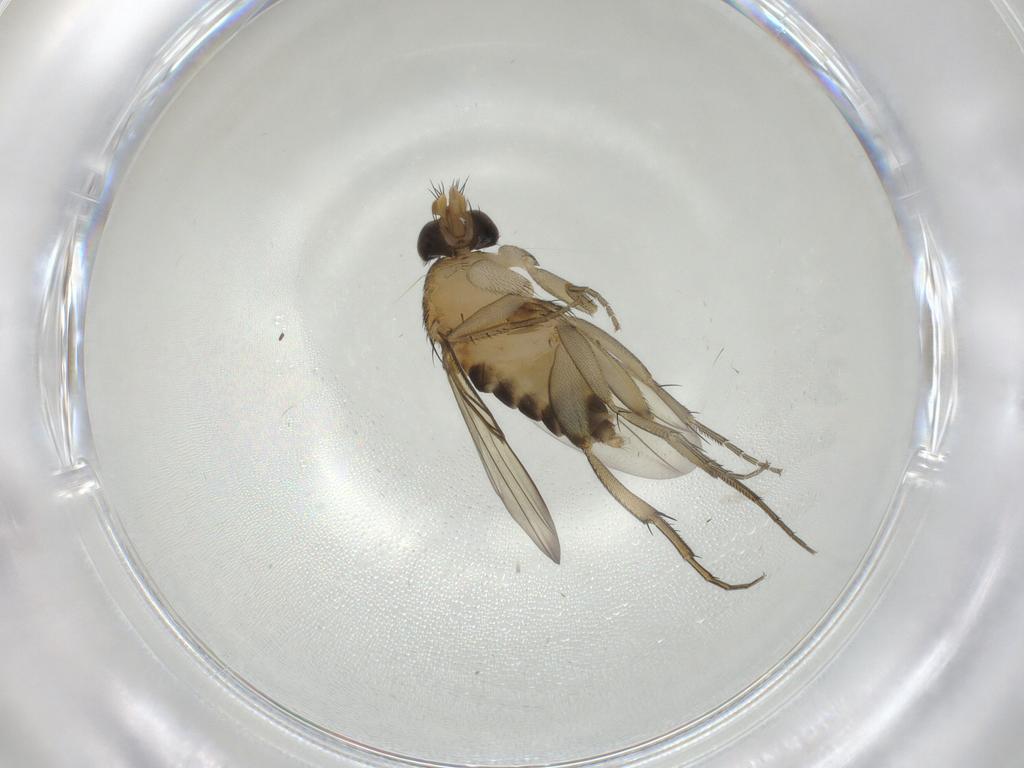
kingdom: Animalia
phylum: Arthropoda
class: Insecta
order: Diptera
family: Phoridae
